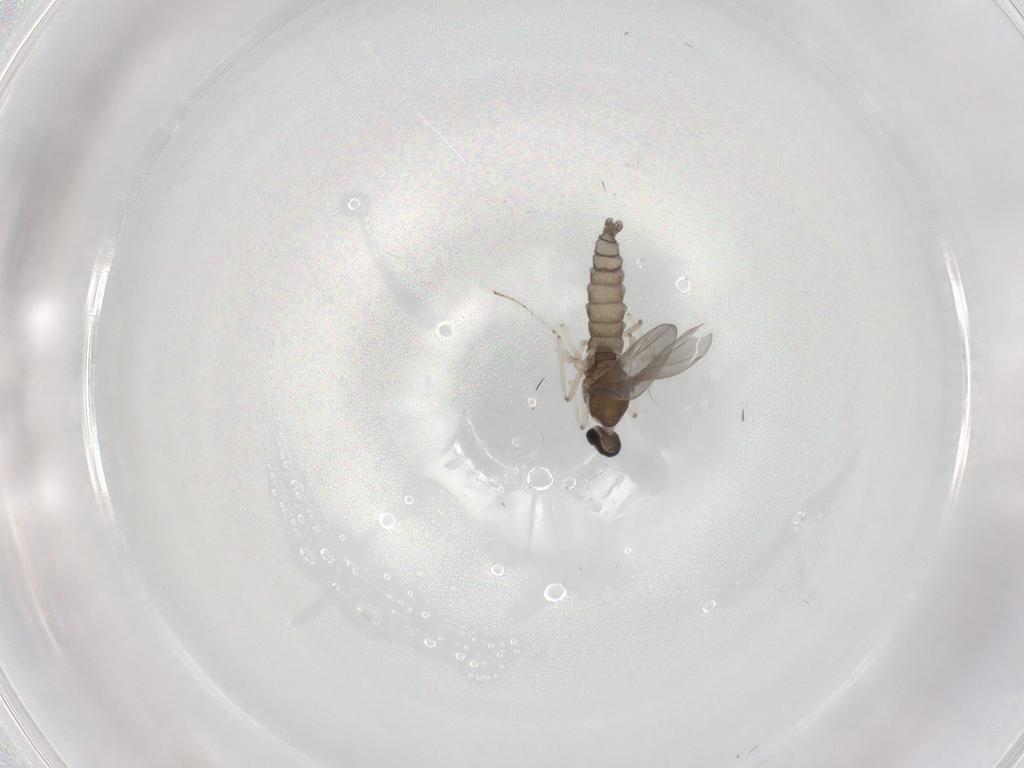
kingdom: Animalia
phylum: Arthropoda
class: Insecta
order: Diptera
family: Cecidomyiidae
